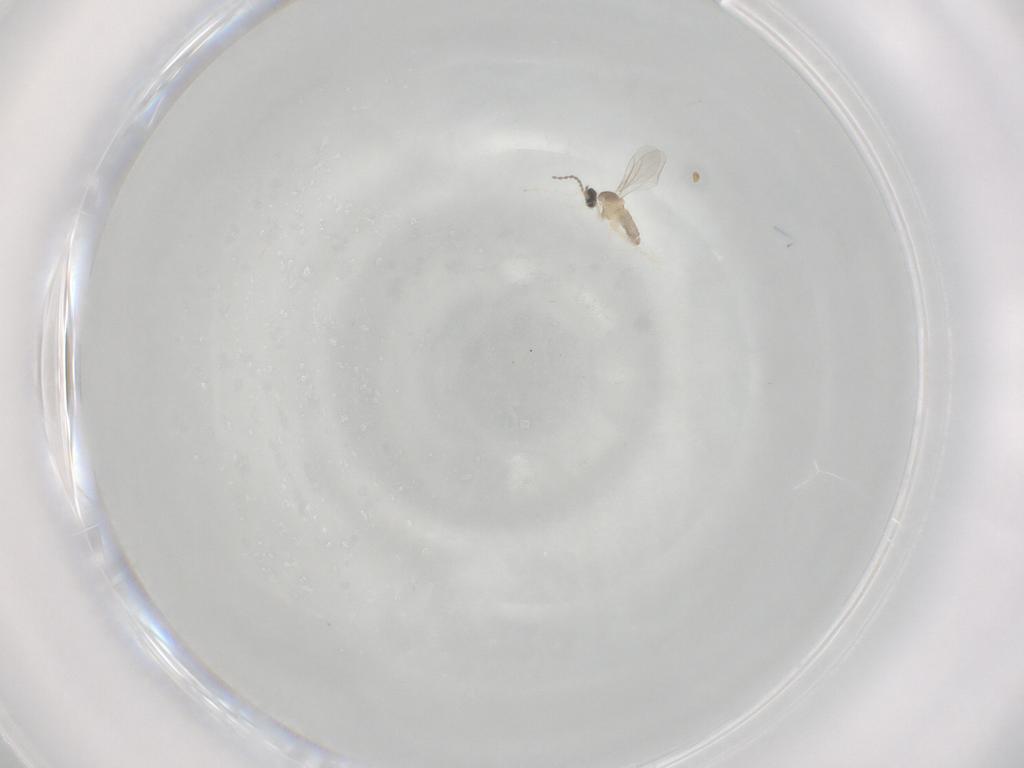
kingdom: Animalia
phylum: Arthropoda
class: Insecta
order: Diptera
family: Cecidomyiidae
